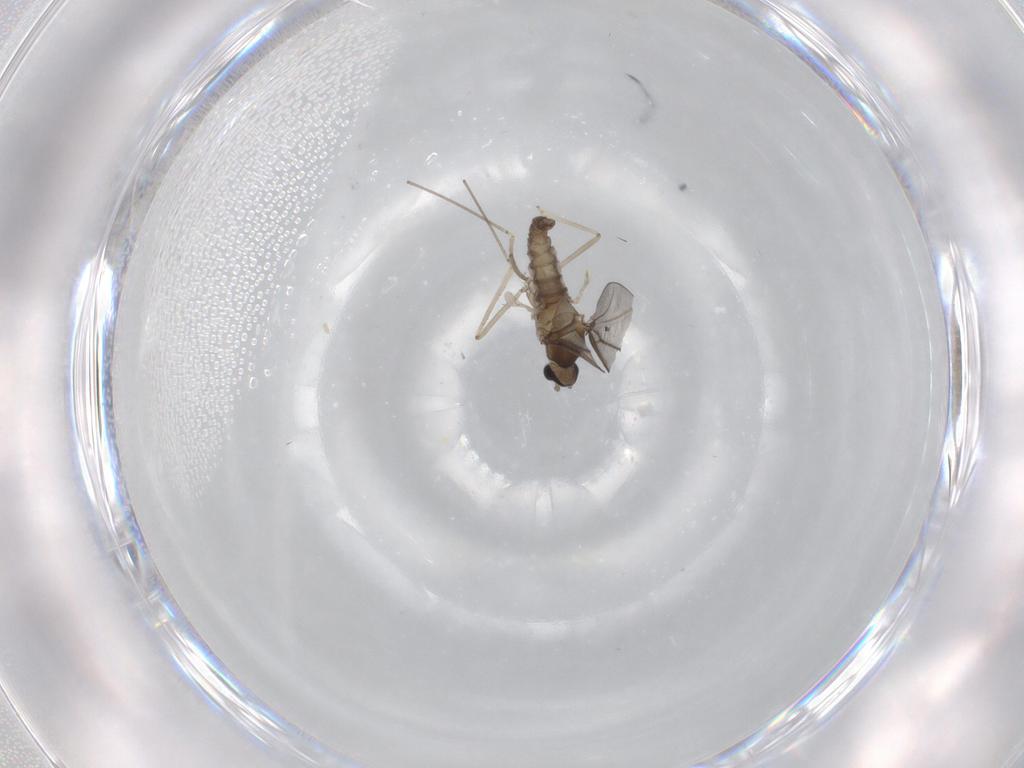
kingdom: Animalia
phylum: Arthropoda
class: Insecta
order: Diptera
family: Cecidomyiidae
